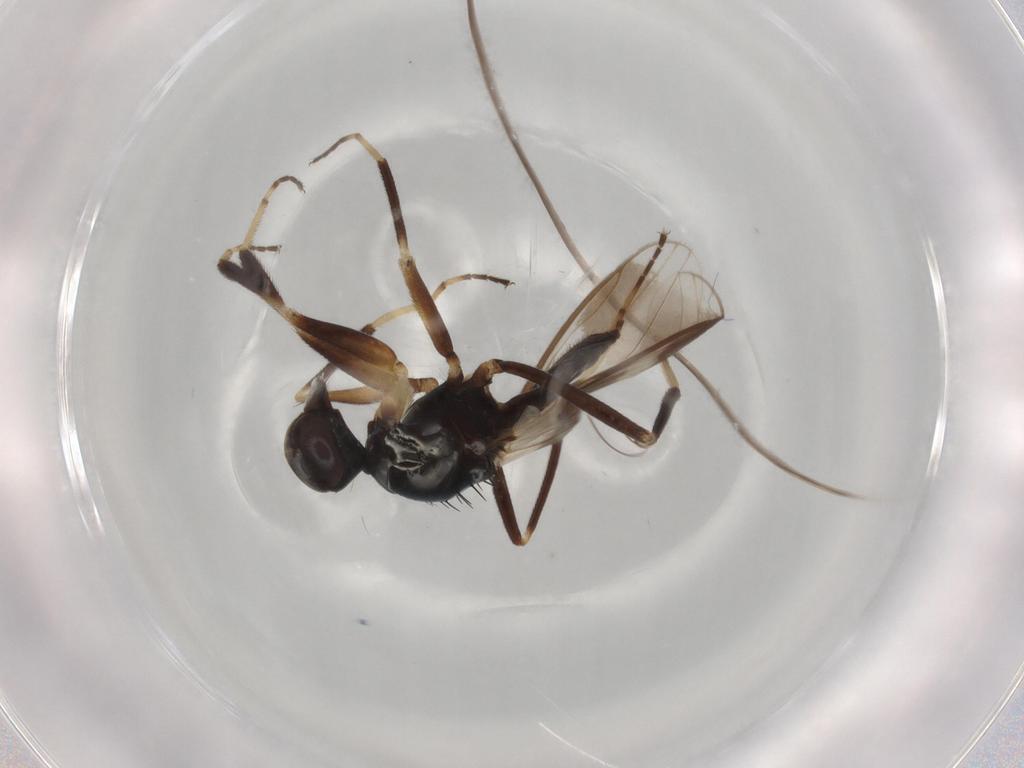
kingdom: Animalia
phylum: Arthropoda
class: Insecta
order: Diptera
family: Hybotidae
